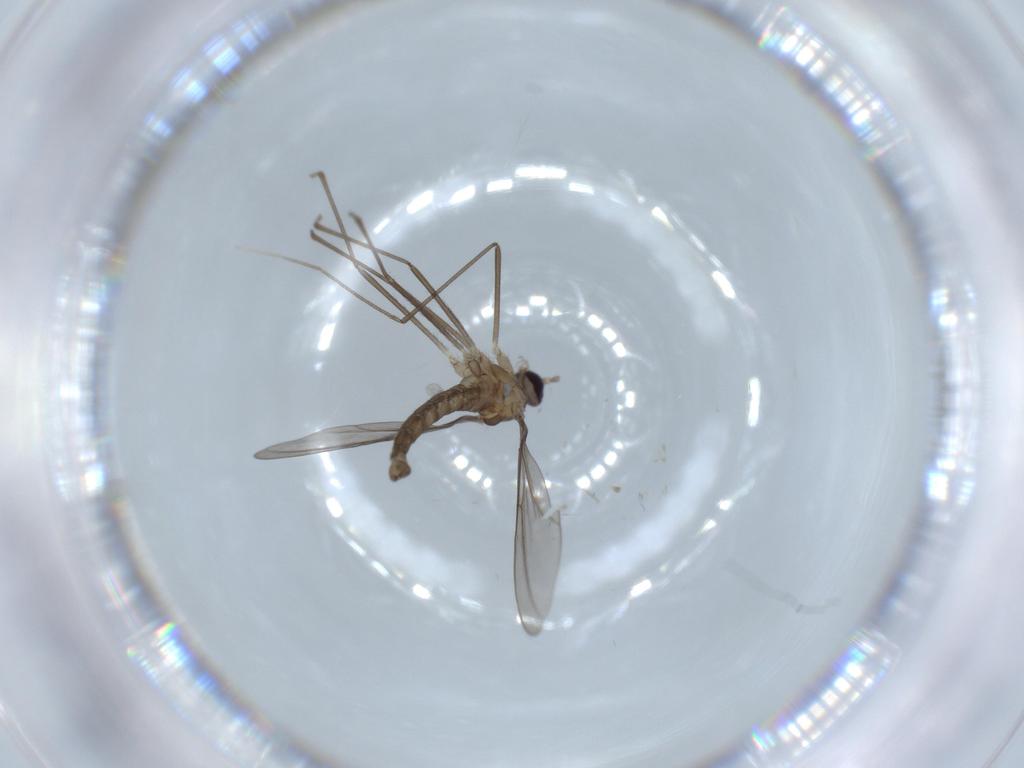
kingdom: Animalia
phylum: Arthropoda
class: Insecta
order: Diptera
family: Cecidomyiidae
